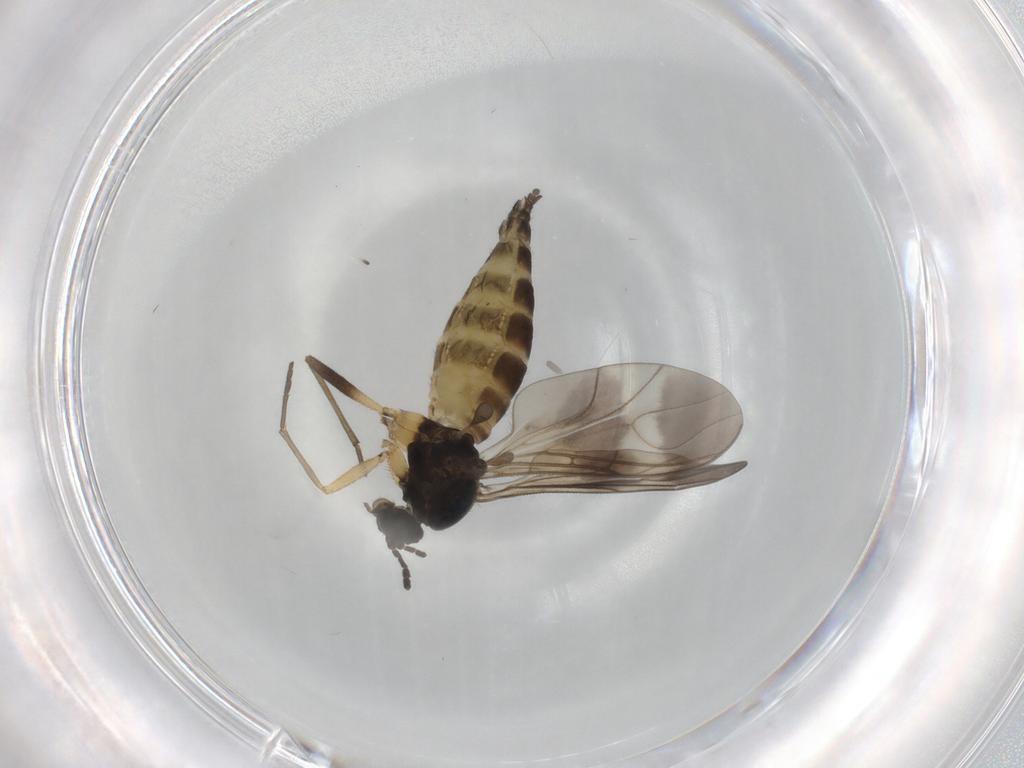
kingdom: Animalia
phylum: Arthropoda
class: Insecta
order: Diptera
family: Sciaridae
